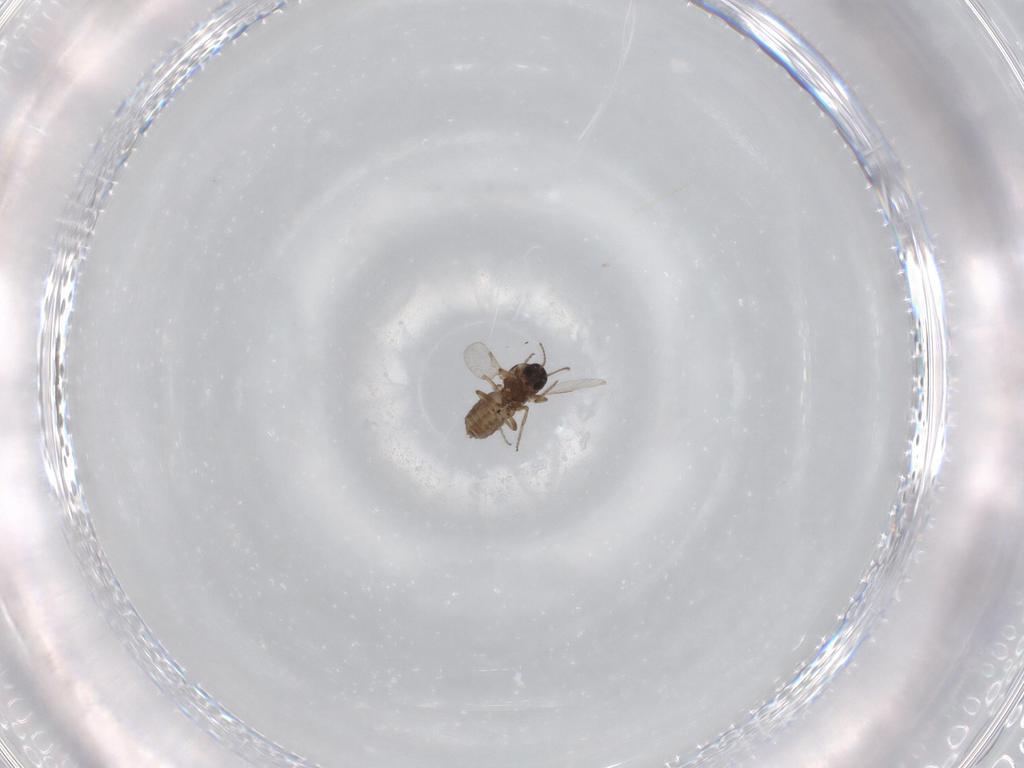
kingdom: Animalia
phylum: Arthropoda
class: Insecta
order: Diptera
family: Ceratopogonidae
